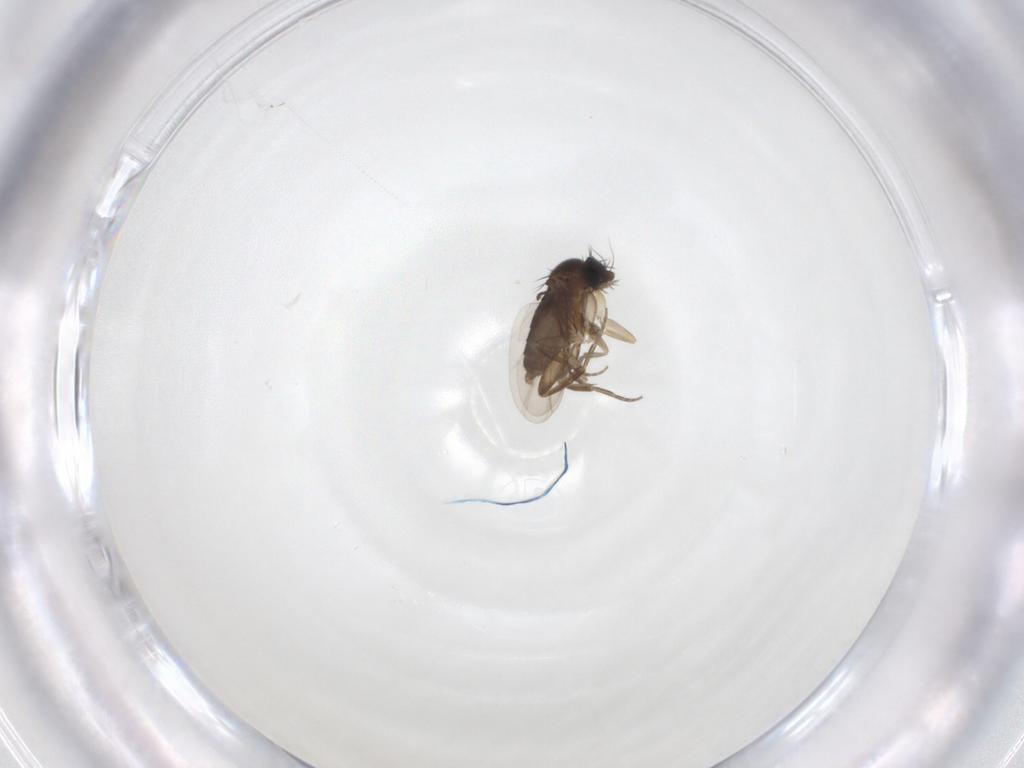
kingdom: Animalia
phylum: Arthropoda
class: Insecta
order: Diptera
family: Phoridae
